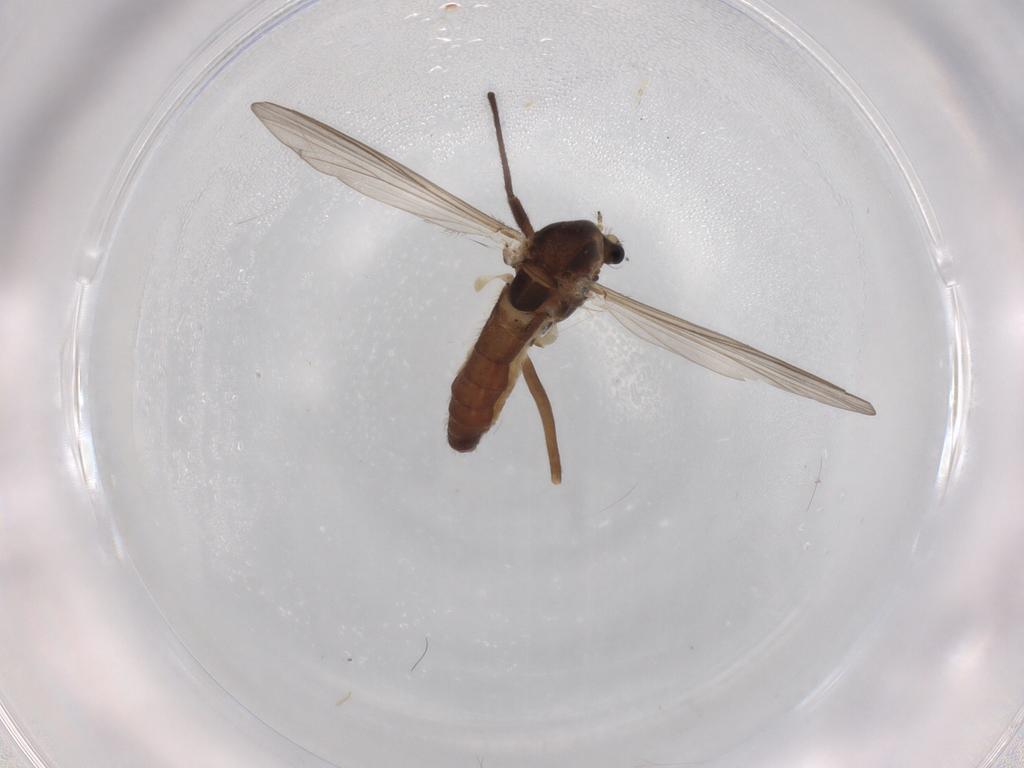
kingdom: Animalia
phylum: Arthropoda
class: Insecta
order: Diptera
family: Chironomidae
